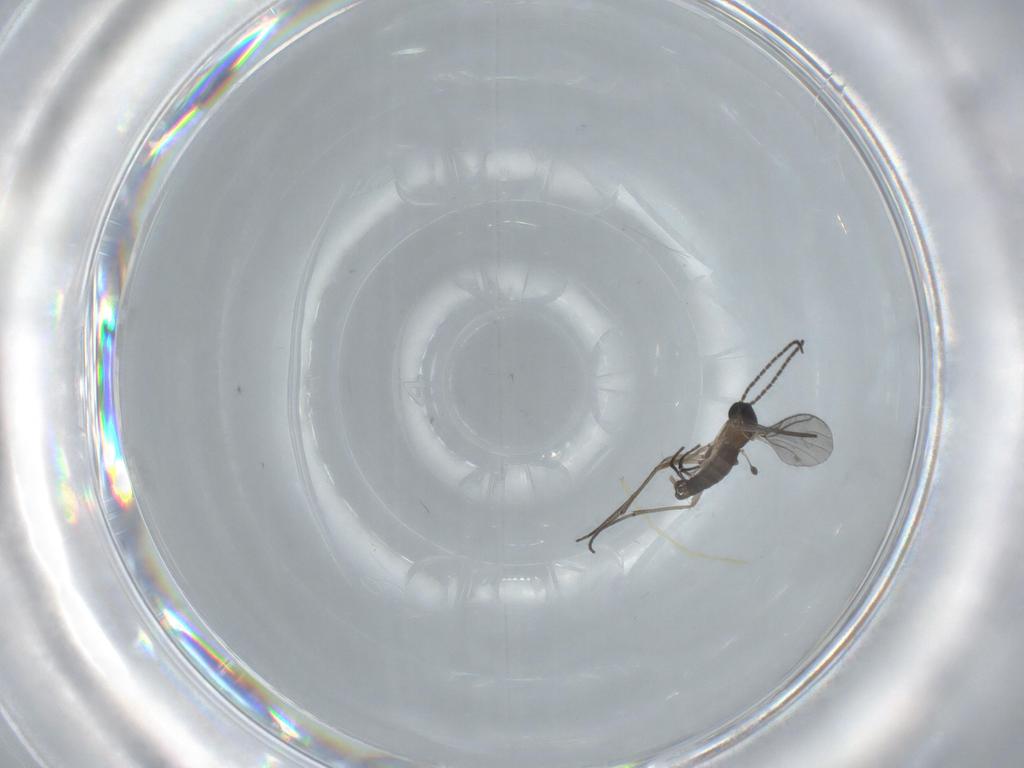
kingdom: Animalia
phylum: Arthropoda
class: Insecta
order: Diptera
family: Chironomidae
